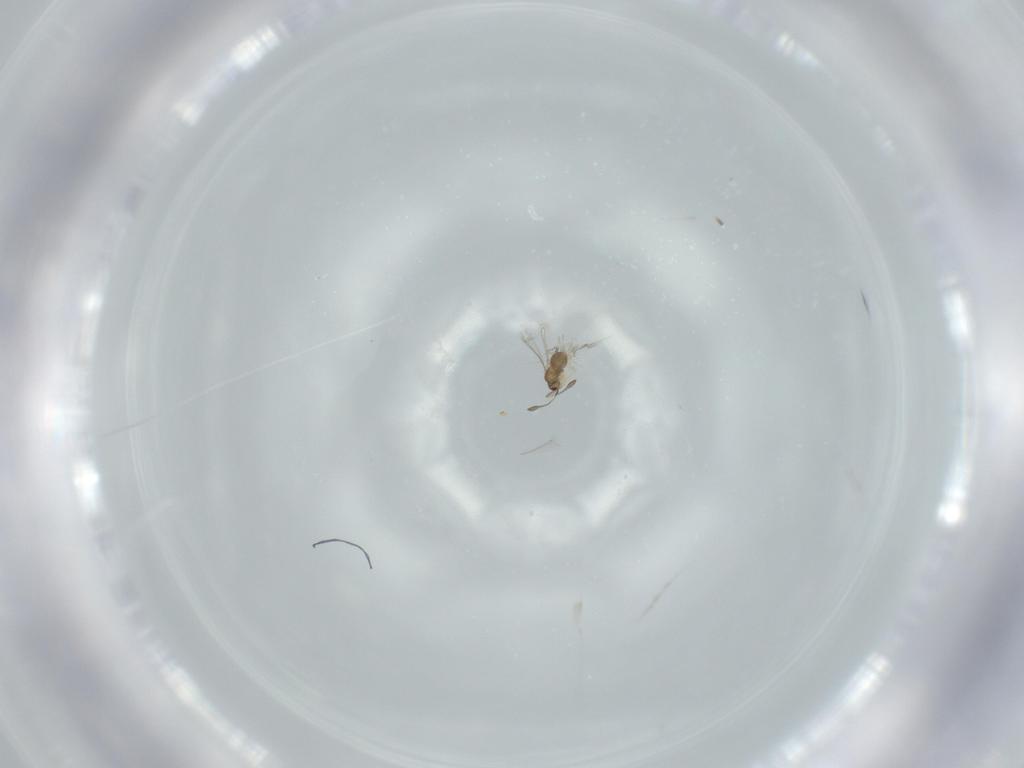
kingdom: Animalia
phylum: Arthropoda
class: Insecta
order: Hymenoptera
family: Mymaridae
